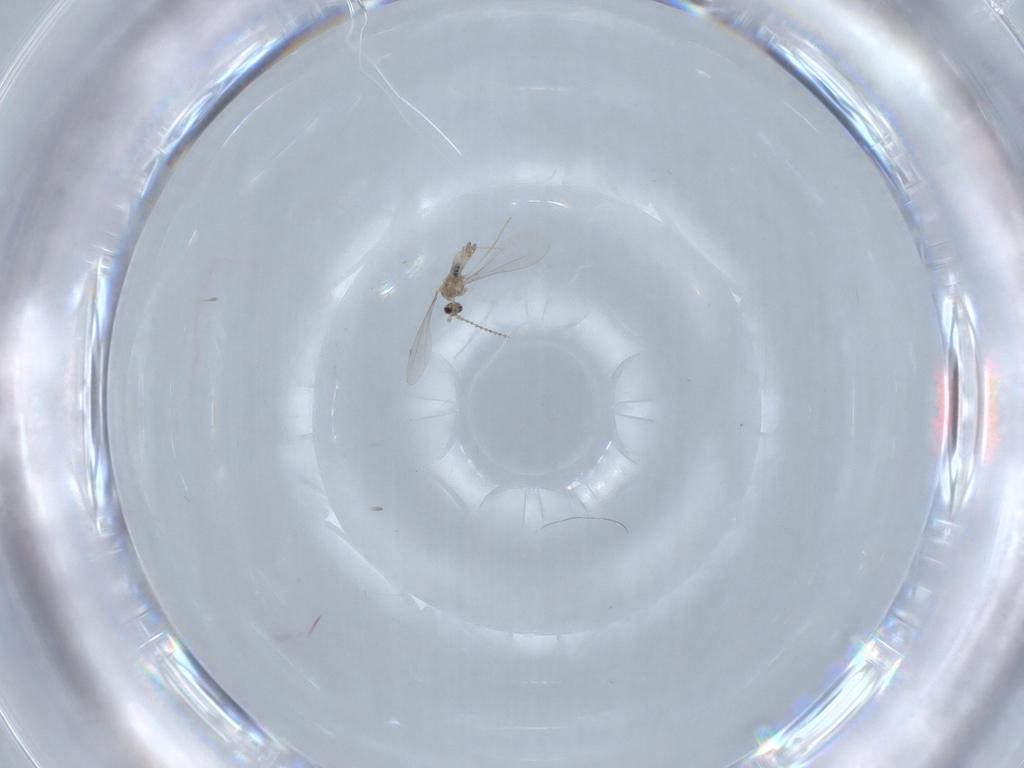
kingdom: Animalia
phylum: Arthropoda
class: Insecta
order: Diptera
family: Cecidomyiidae
